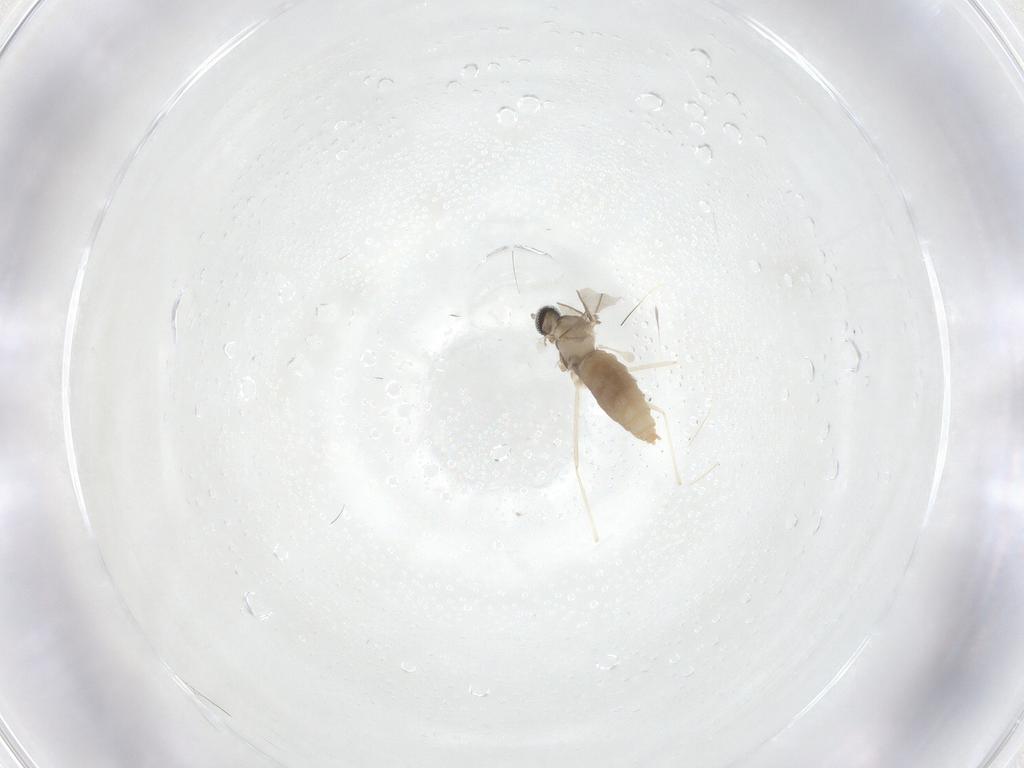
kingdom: Animalia
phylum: Arthropoda
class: Insecta
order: Diptera
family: Cecidomyiidae
